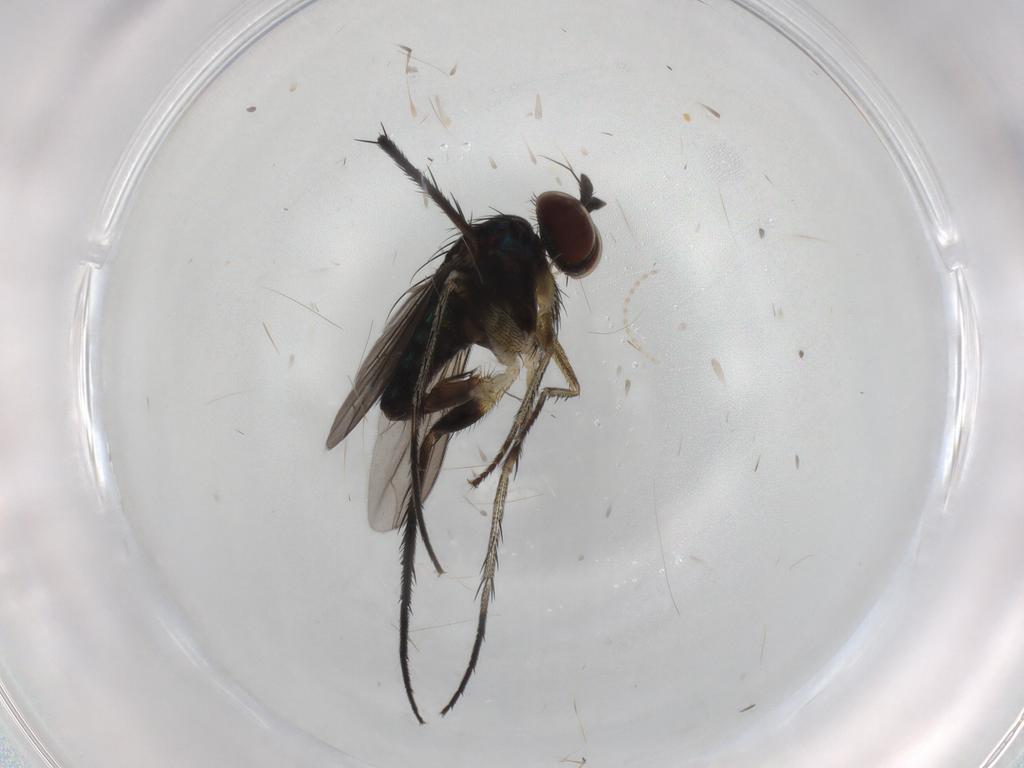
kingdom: Animalia
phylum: Arthropoda
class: Insecta
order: Diptera
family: Dolichopodidae
